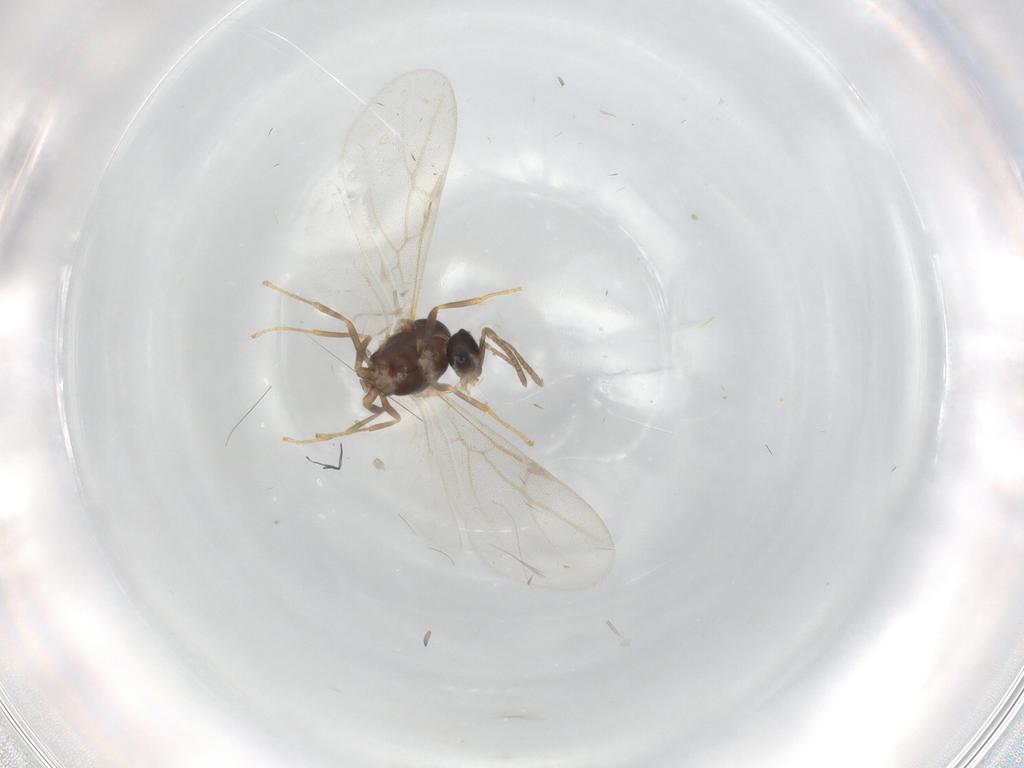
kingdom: Animalia
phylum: Arthropoda
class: Insecta
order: Hymenoptera
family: Formicidae
